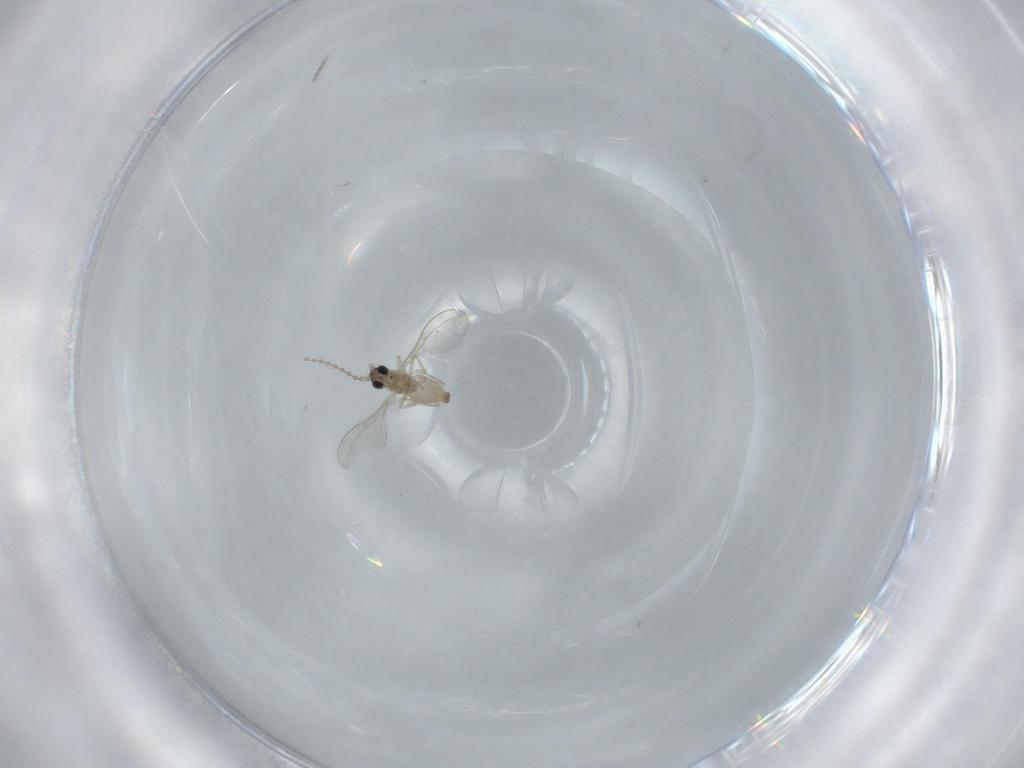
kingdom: Animalia
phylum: Arthropoda
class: Insecta
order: Diptera
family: Cecidomyiidae
